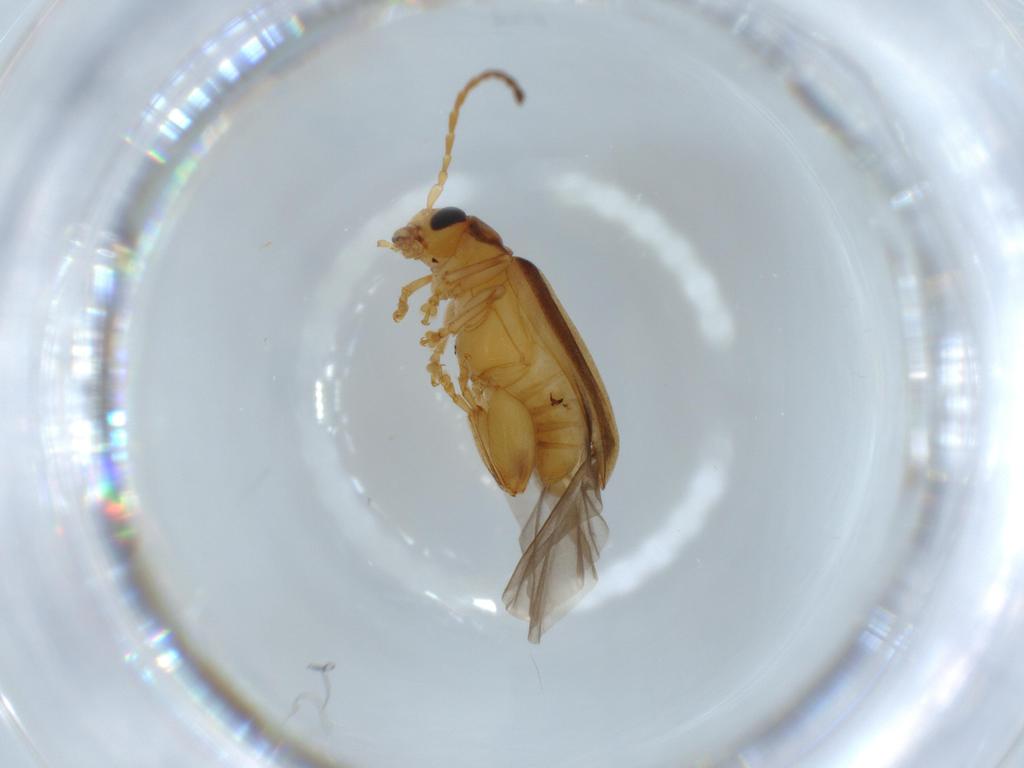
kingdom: Animalia
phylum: Arthropoda
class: Insecta
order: Coleoptera
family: Chrysomelidae
